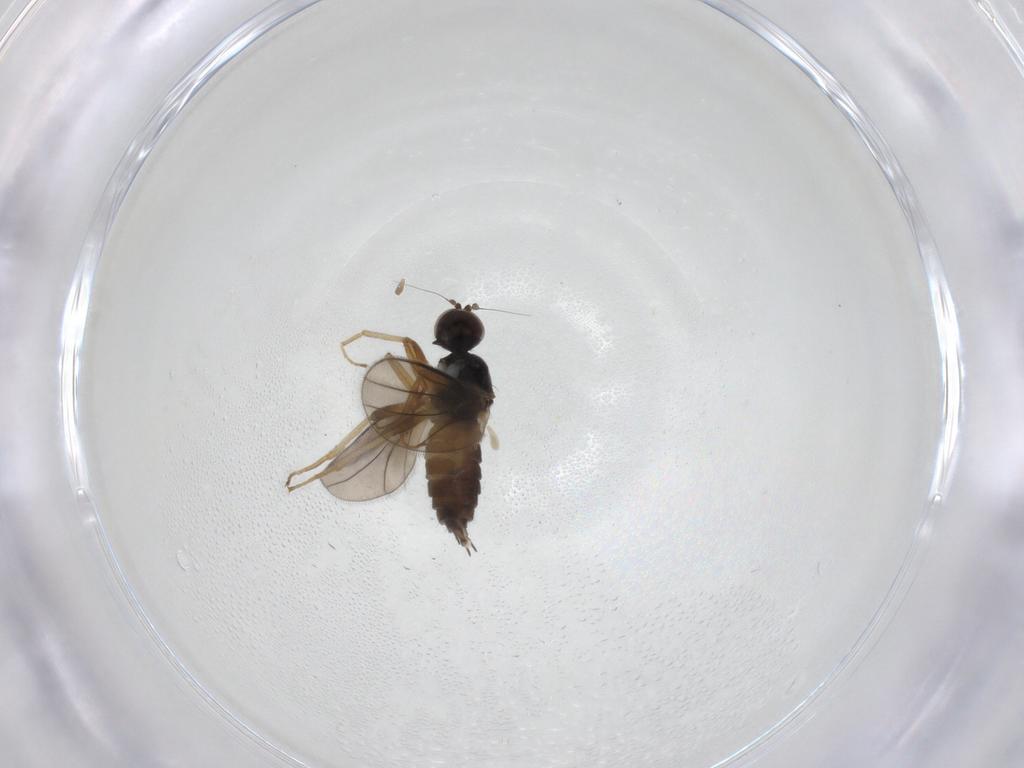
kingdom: Animalia
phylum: Arthropoda
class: Insecta
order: Diptera
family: Hybotidae
